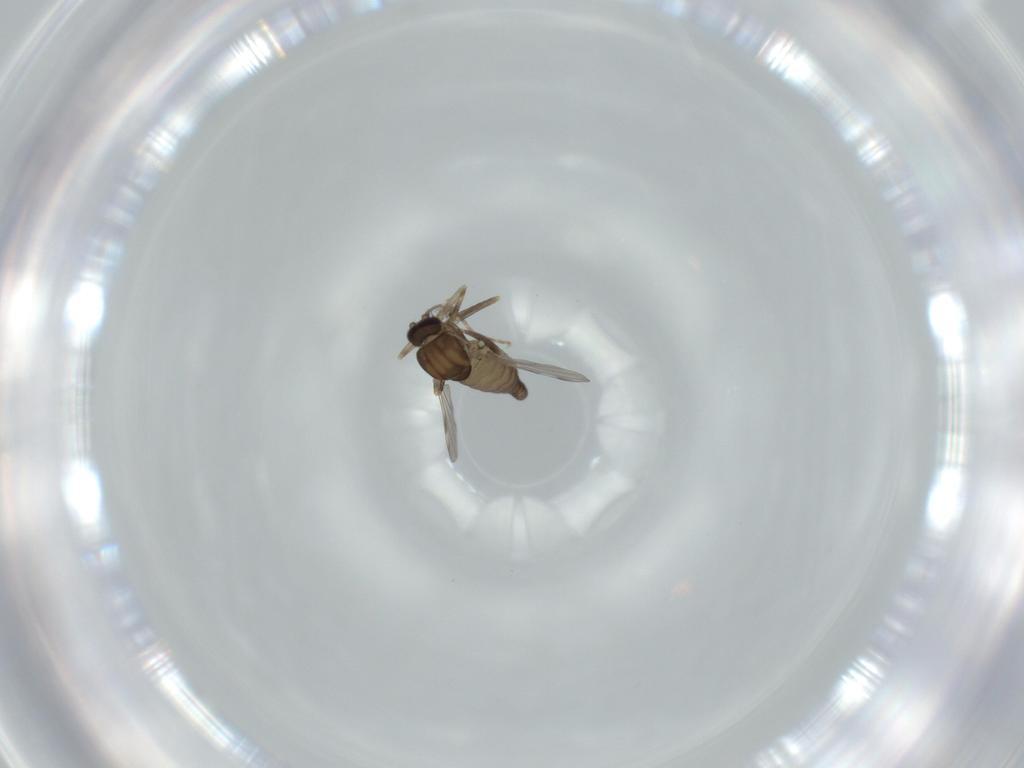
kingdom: Animalia
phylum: Arthropoda
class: Insecta
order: Diptera
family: Ceratopogonidae
